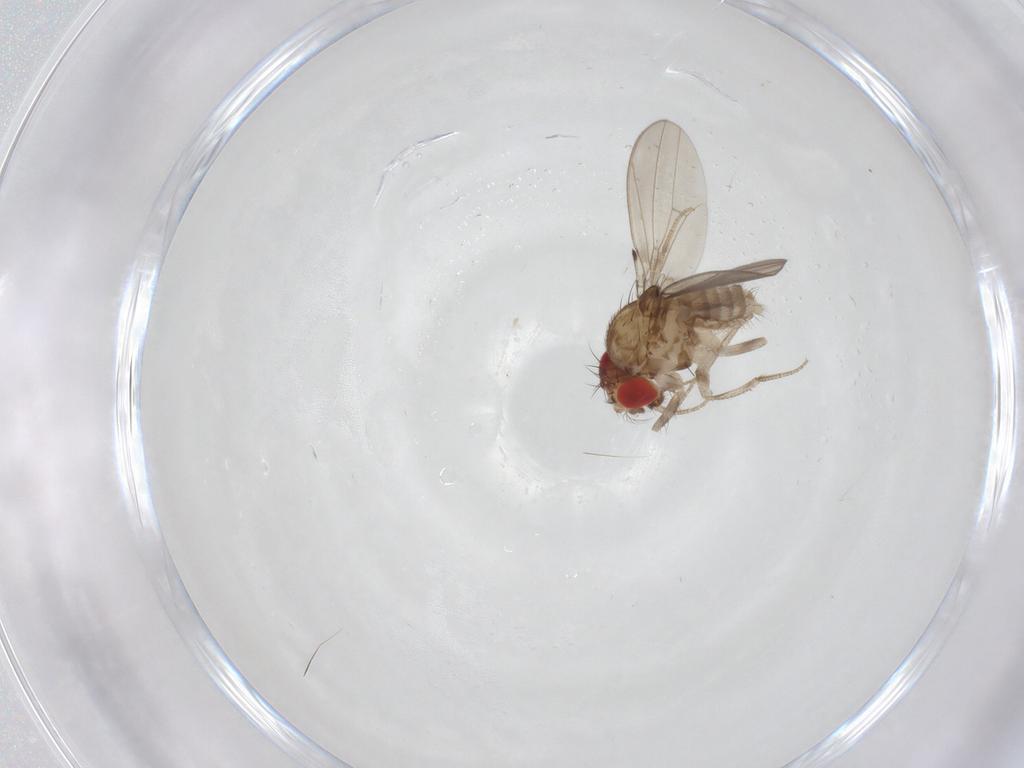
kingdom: Animalia
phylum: Arthropoda
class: Insecta
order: Diptera
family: Drosophilidae
